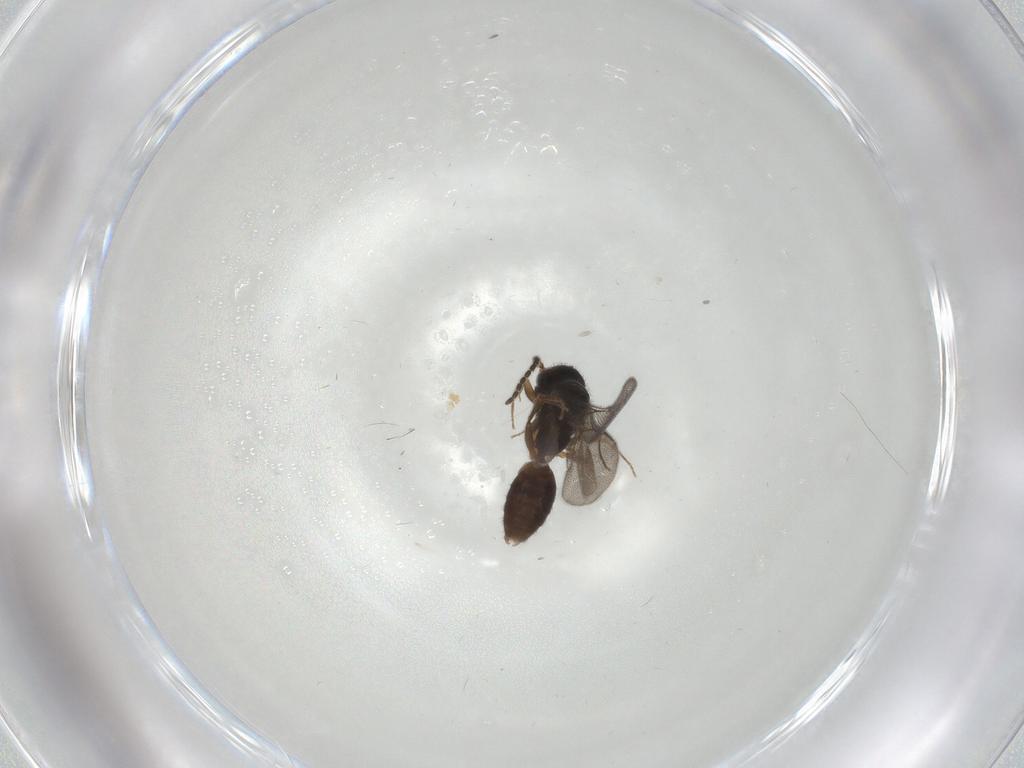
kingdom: Animalia
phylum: Arthropoda
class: Insecta
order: Hymenoptera
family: Bethylidae
